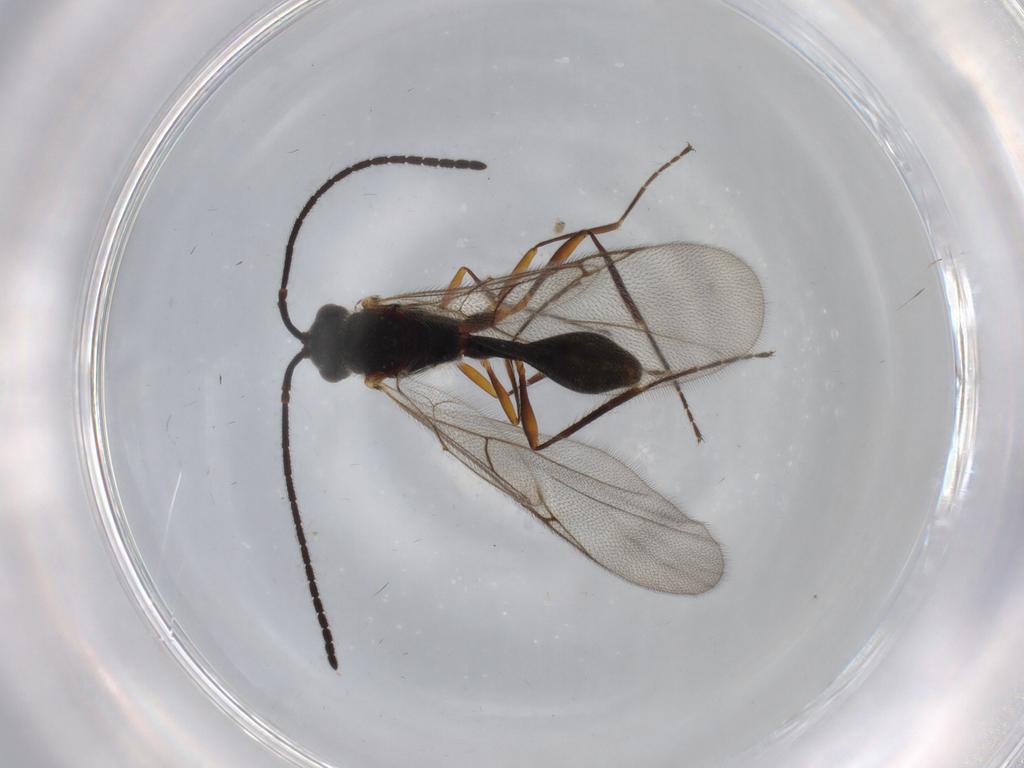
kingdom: Animalia
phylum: Arthropoda
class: Insecta
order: Hymenoptera
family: Diapriidae
